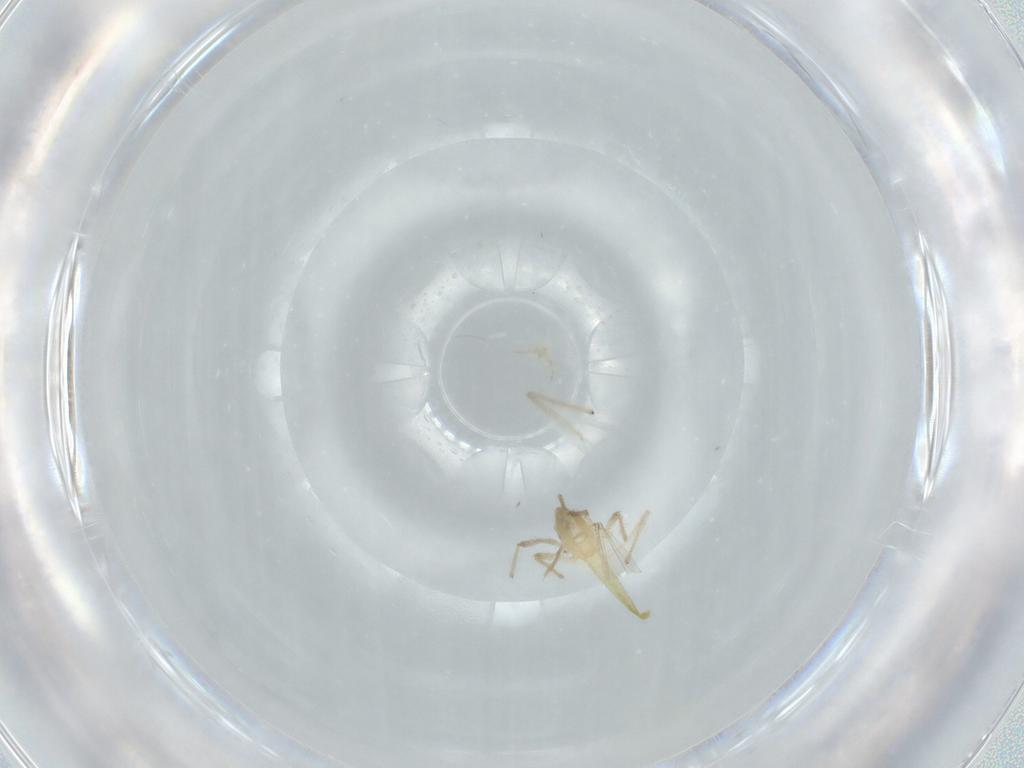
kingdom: Animalia
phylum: Arthropoda
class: Insecta
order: Diptera
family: Chironomidae
